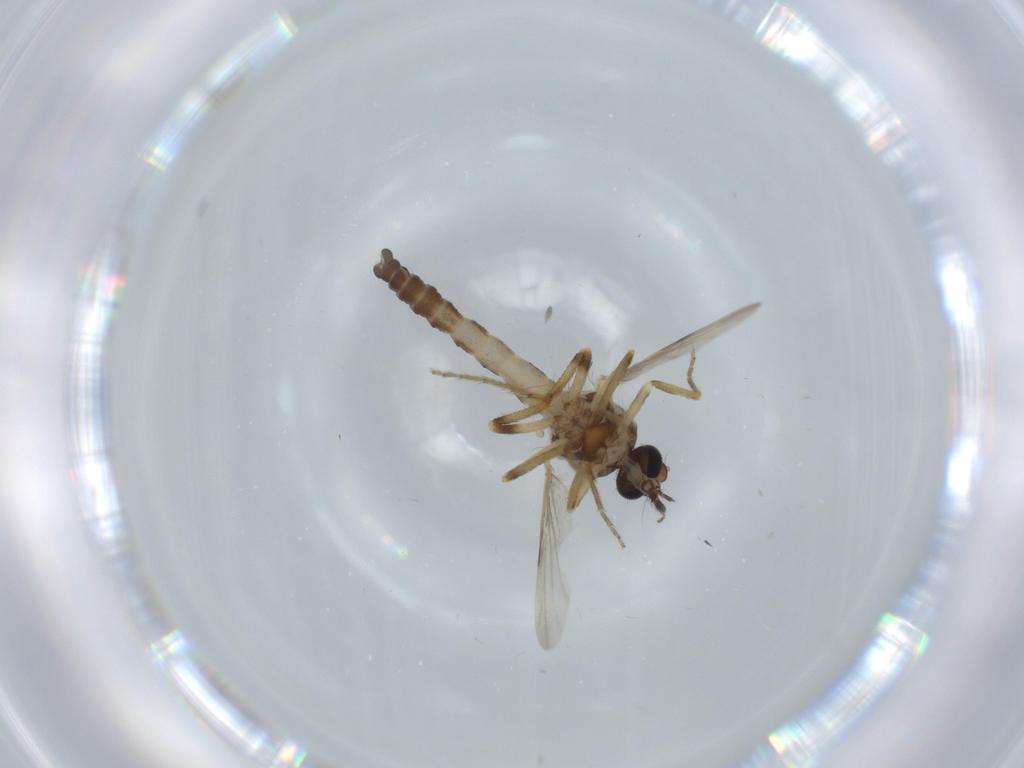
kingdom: Animalia
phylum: Arthropoda
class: Insecta
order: Diptera
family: Ceratopogonidae
